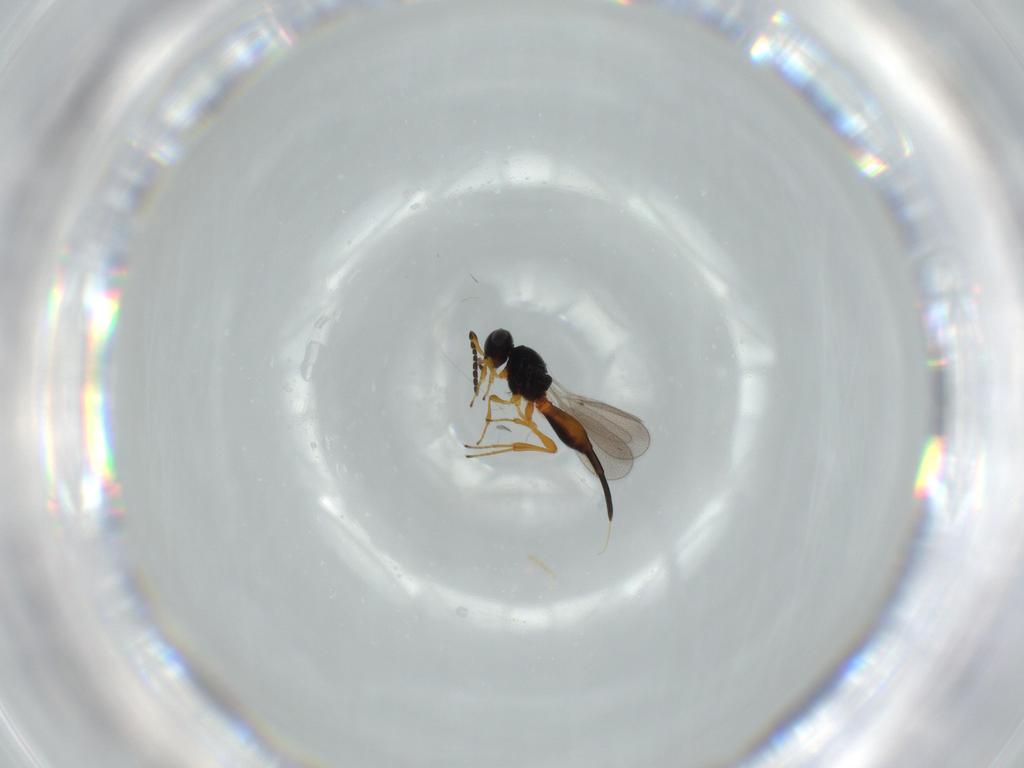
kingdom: Animalia
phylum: Arthropoda
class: Insecta
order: Hymenoptera
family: Platygastridae
